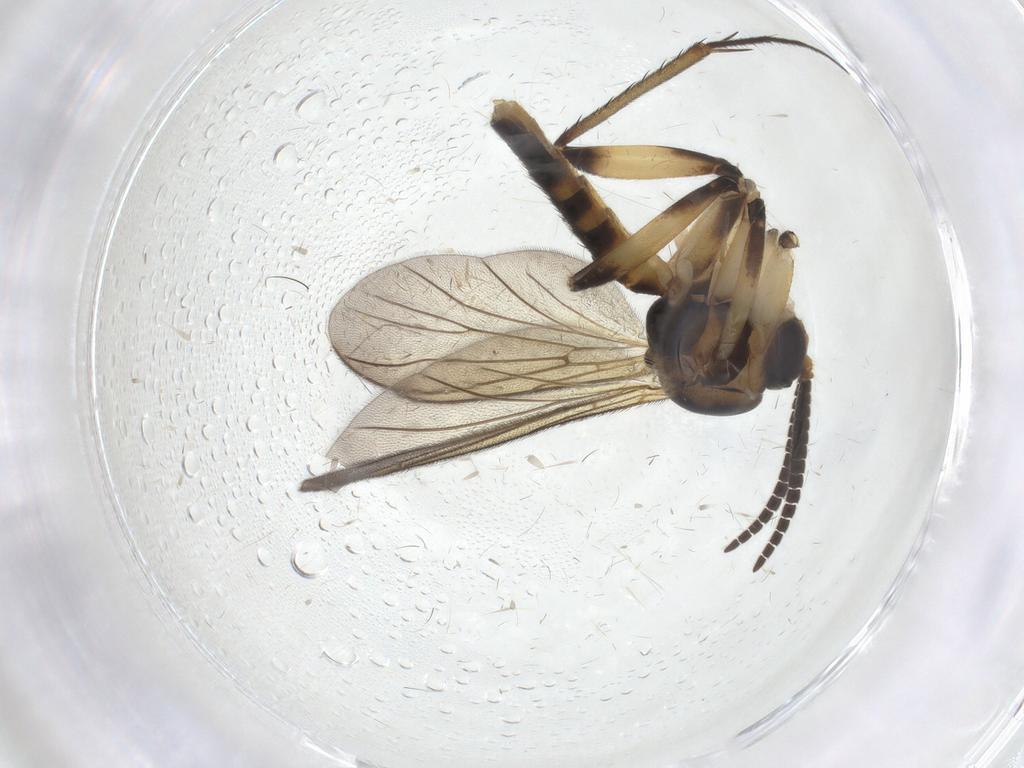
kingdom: Animalia
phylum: Arthropoda
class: Insecta
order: Diptera
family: Mycetophilidae
